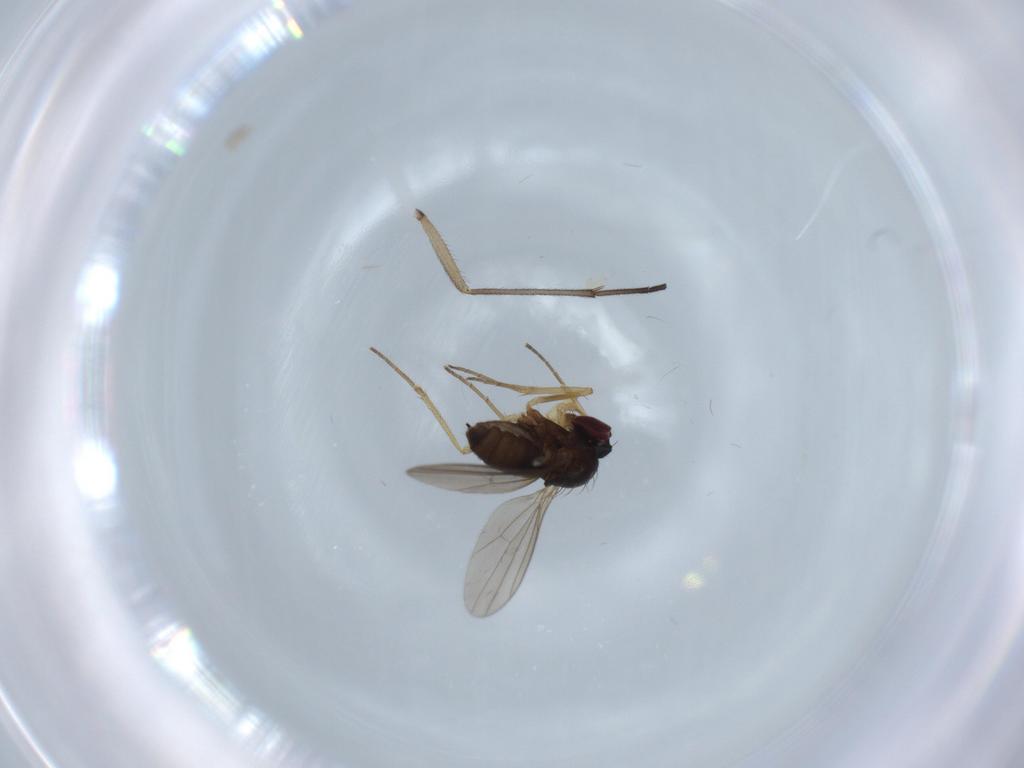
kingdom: Animalia
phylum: Arthropoda
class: Insecta
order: Diptera
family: Dolichopodidae
